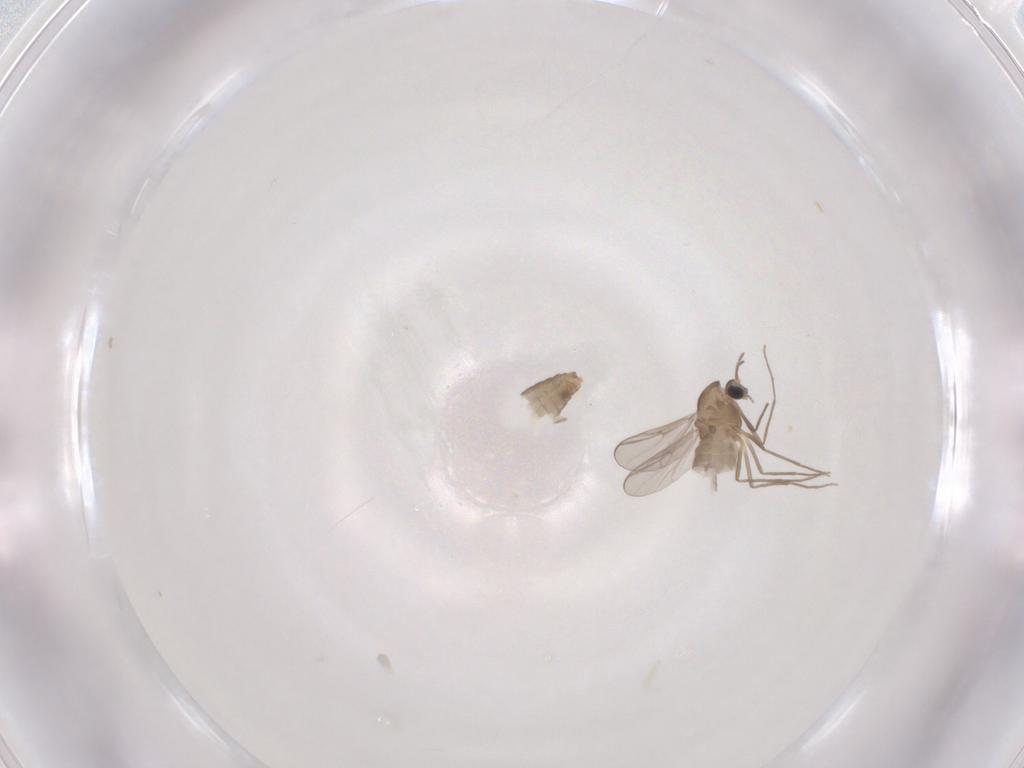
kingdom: Animalia
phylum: Arthropoda
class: Insecta
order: Diptera
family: Chironomidae
